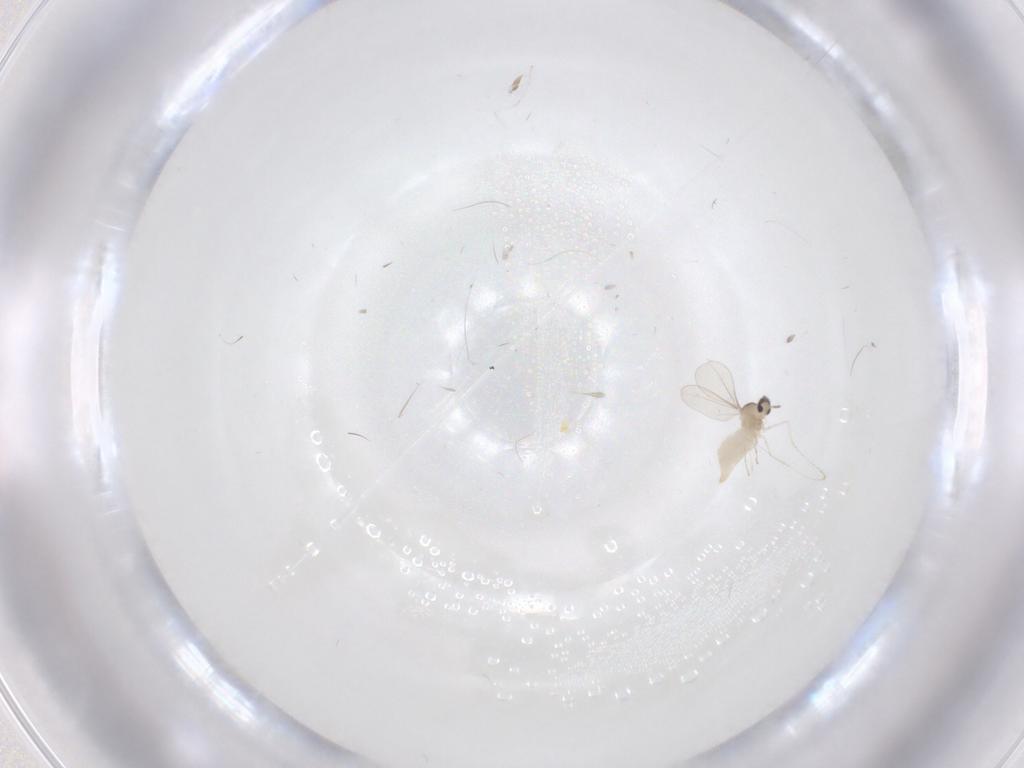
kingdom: Animalia
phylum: Arthropoda
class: Insecta
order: Diptera
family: Cecidomyiidae
